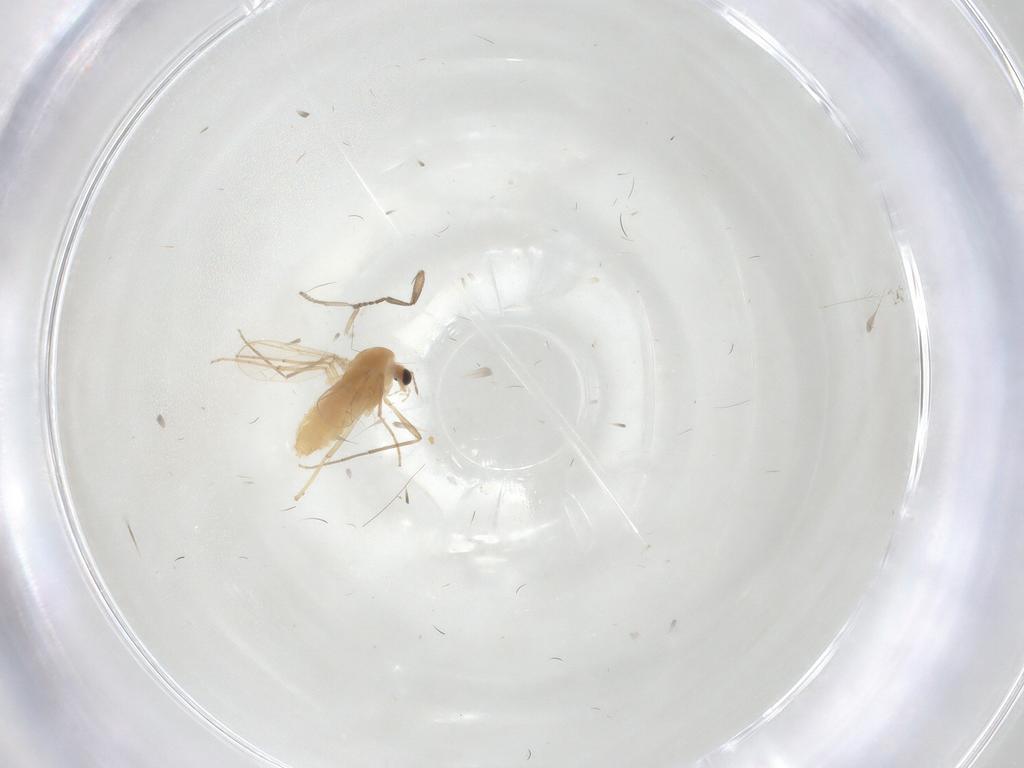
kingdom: Animalia
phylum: Arthropoda
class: Insecta
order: Diptera
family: Chironomidae
